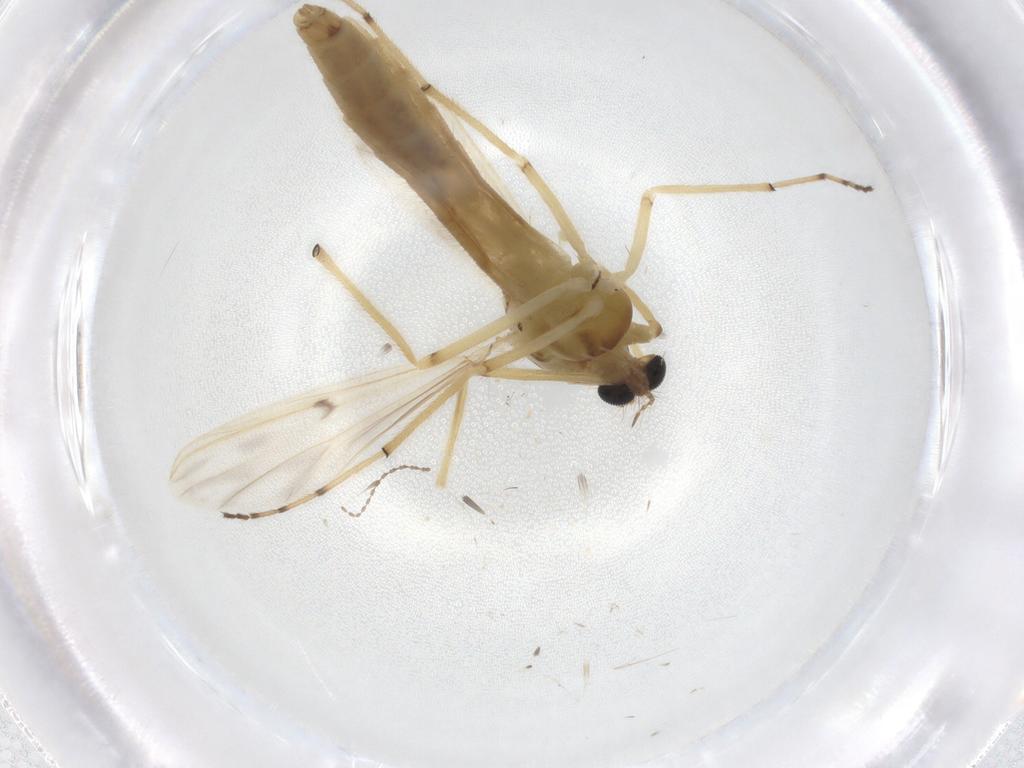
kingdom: Animalia
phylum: Arthropoda
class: Insecta
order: Diptera
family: Chironomidae
